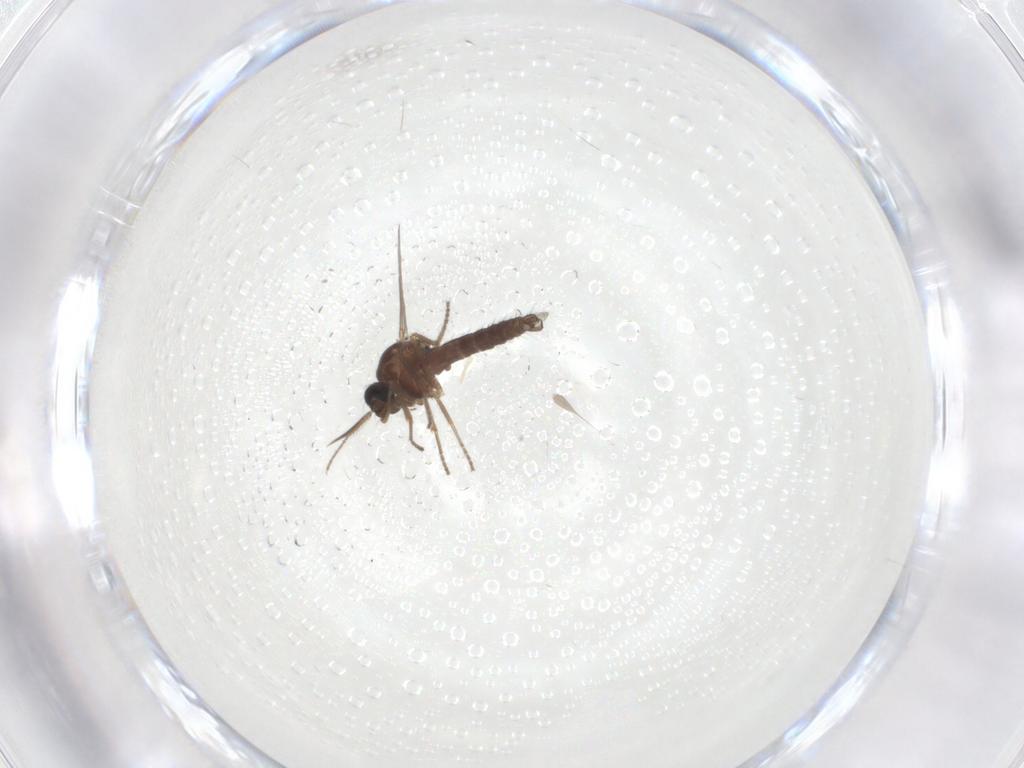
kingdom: Animalia
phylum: Arthropoda
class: Insecta
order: Diptera
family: Ceratopogonidae
